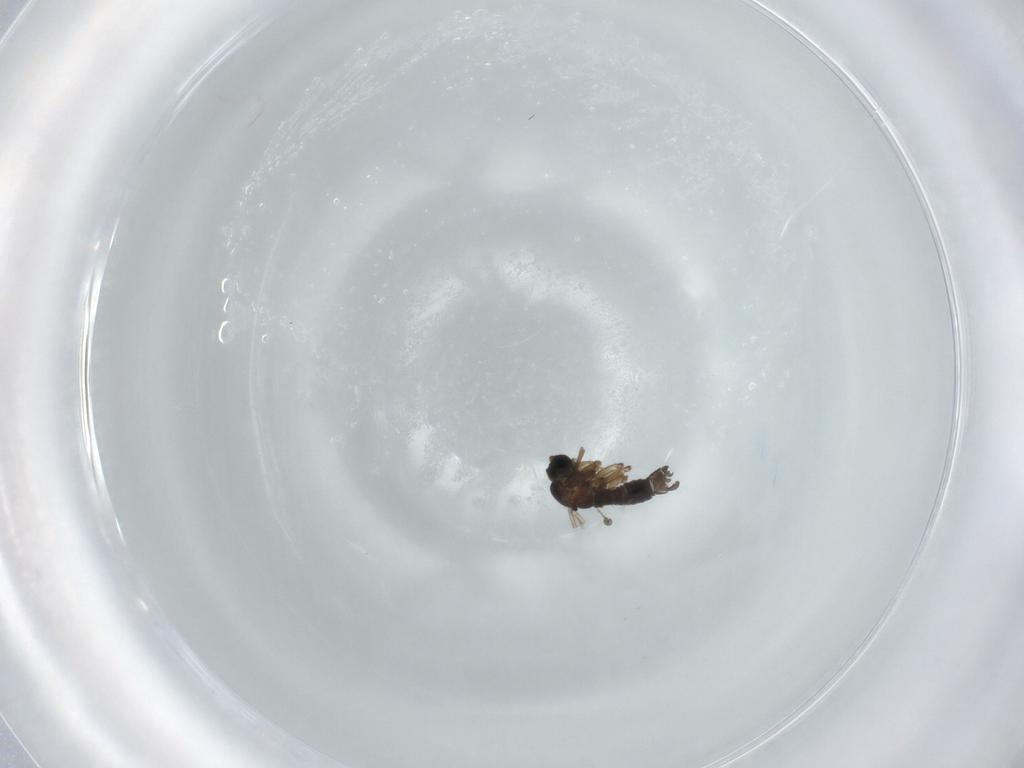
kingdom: Animalia
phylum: Arthropoda
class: Insecta
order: Diptera
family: Sciaridae
